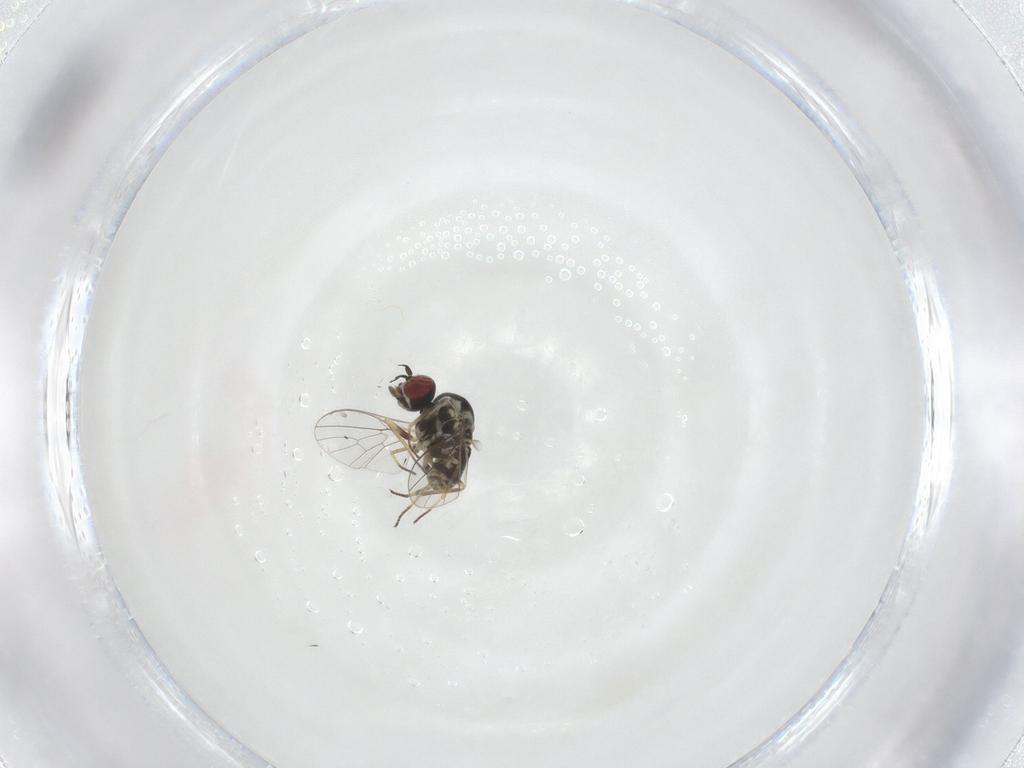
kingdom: Animalia
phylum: Arthropoda
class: Insecta
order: Diptera
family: Mythicomyiidae
